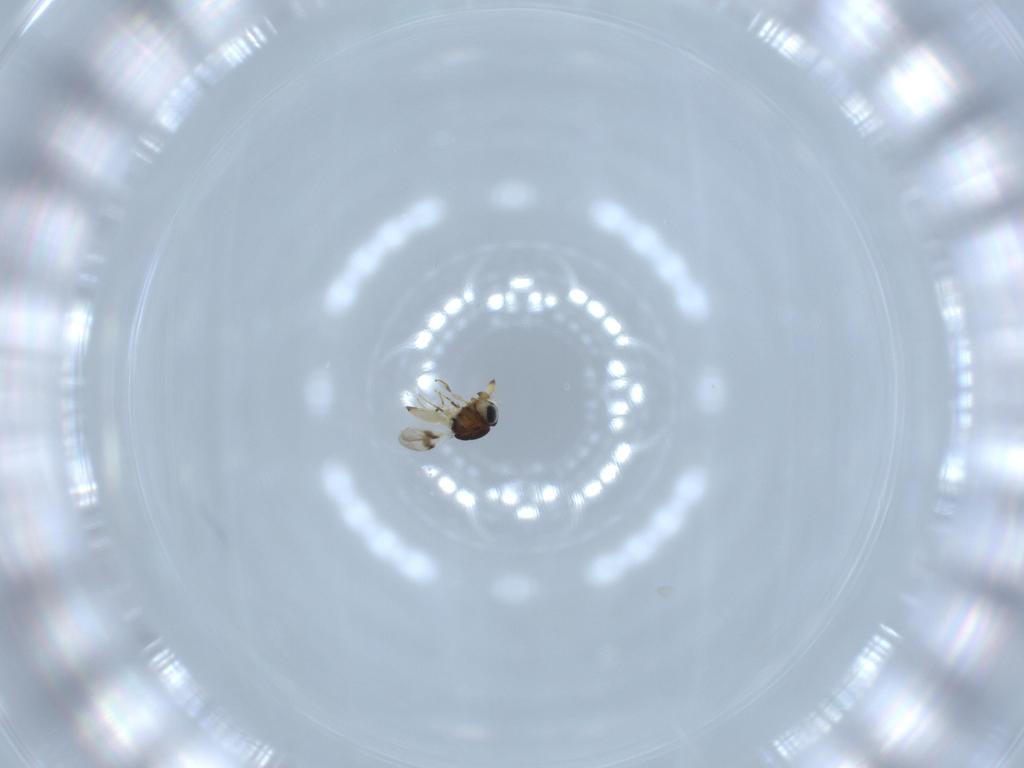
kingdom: Animalia
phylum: Arthropoda
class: Insecta
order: Hymenoptera
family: Scelionidae
